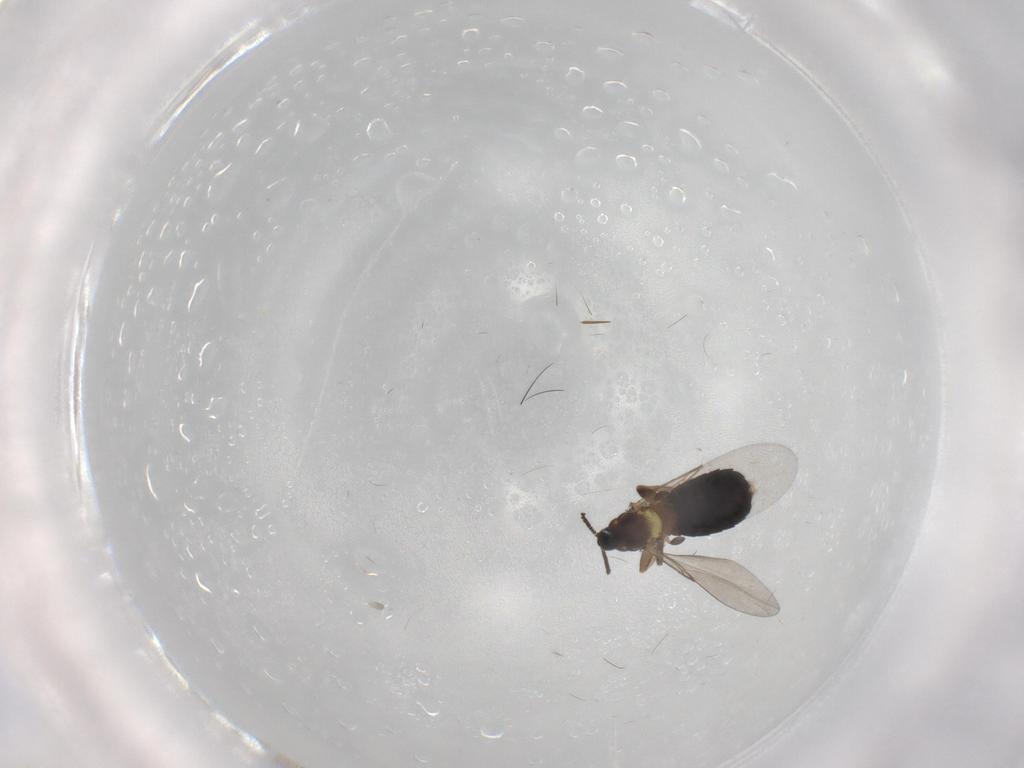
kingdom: Animalia
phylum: Arthropoda
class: Insecta
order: Diptera
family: Scatopsidae
